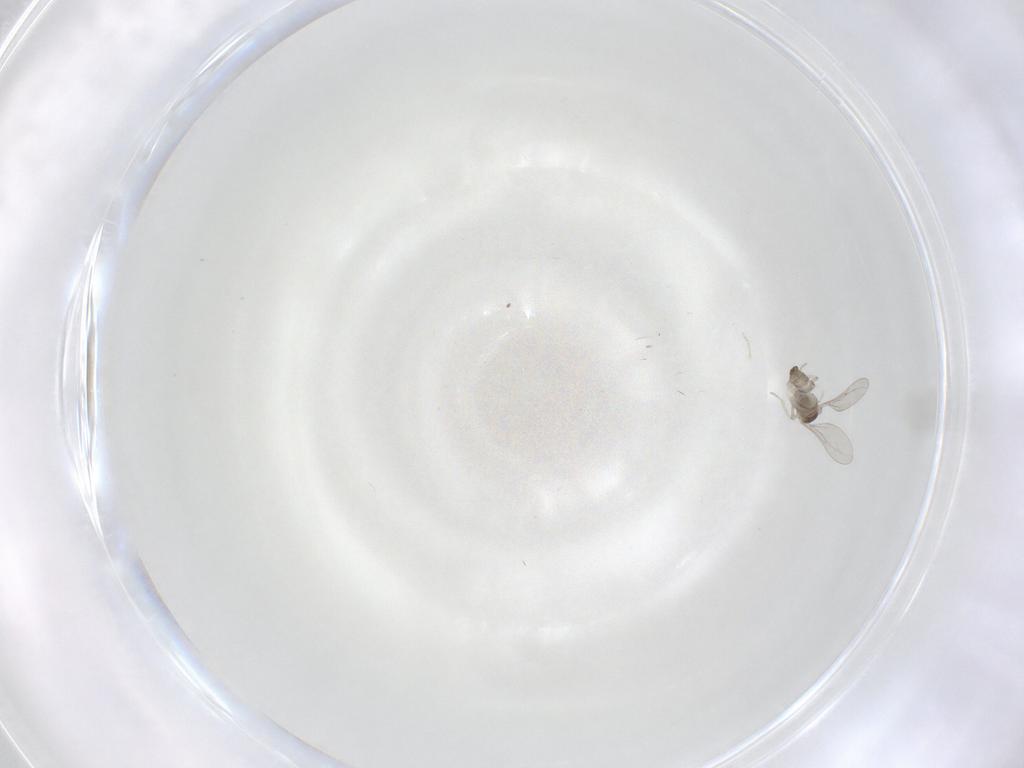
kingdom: Animalia
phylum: Arthropoda
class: Insecta
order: Diptera
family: Cecidomyiidae
